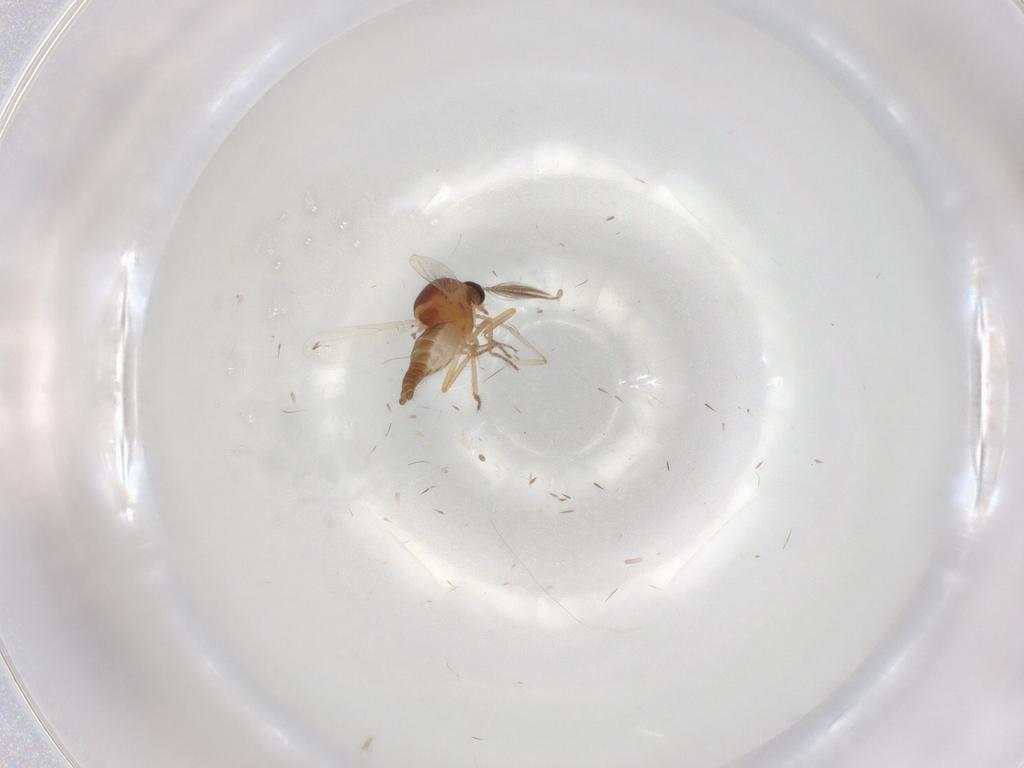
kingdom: Animalia
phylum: Arthropoda
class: Insecta
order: Diptera
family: Ceratopogonidae
